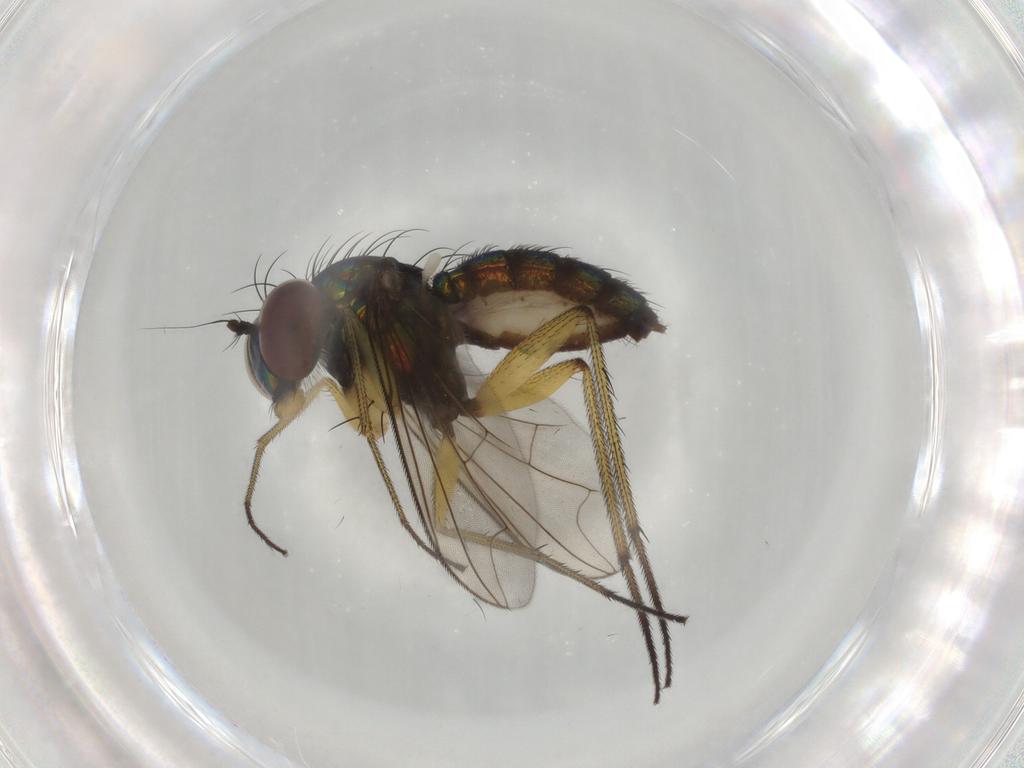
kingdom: Animalia
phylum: Arthropoda
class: Insecta
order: Diptera
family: Dolichopodidae
